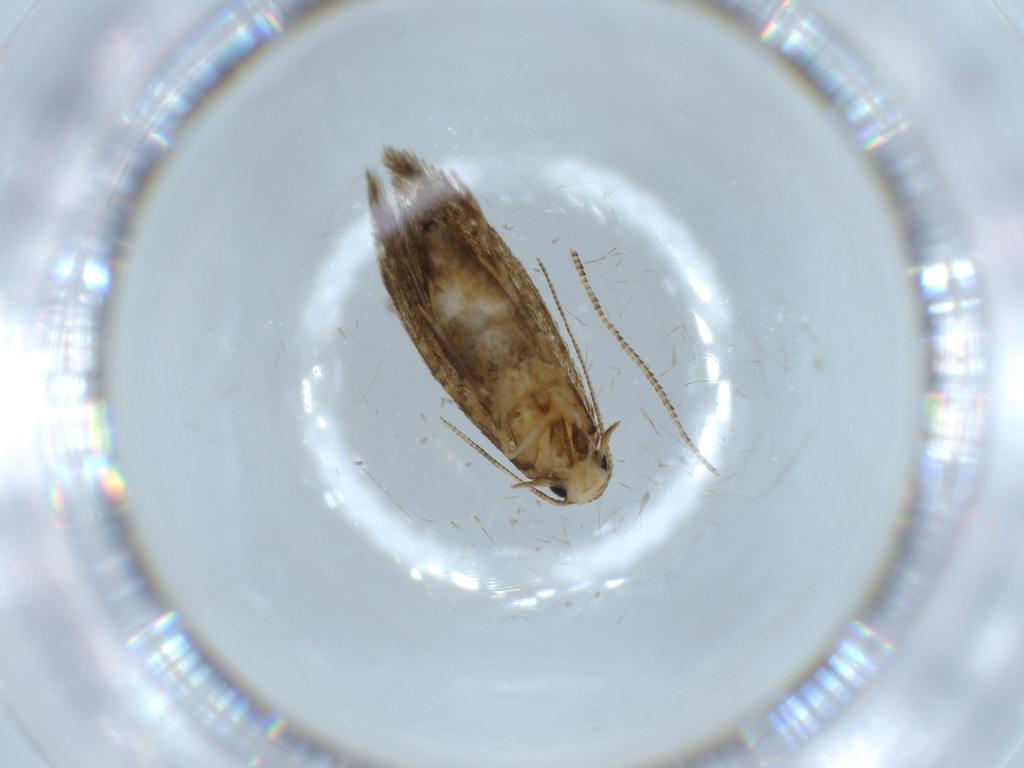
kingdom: Animalia
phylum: Arthropoda
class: Insecta
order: Lepidoptera
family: Tineidae
